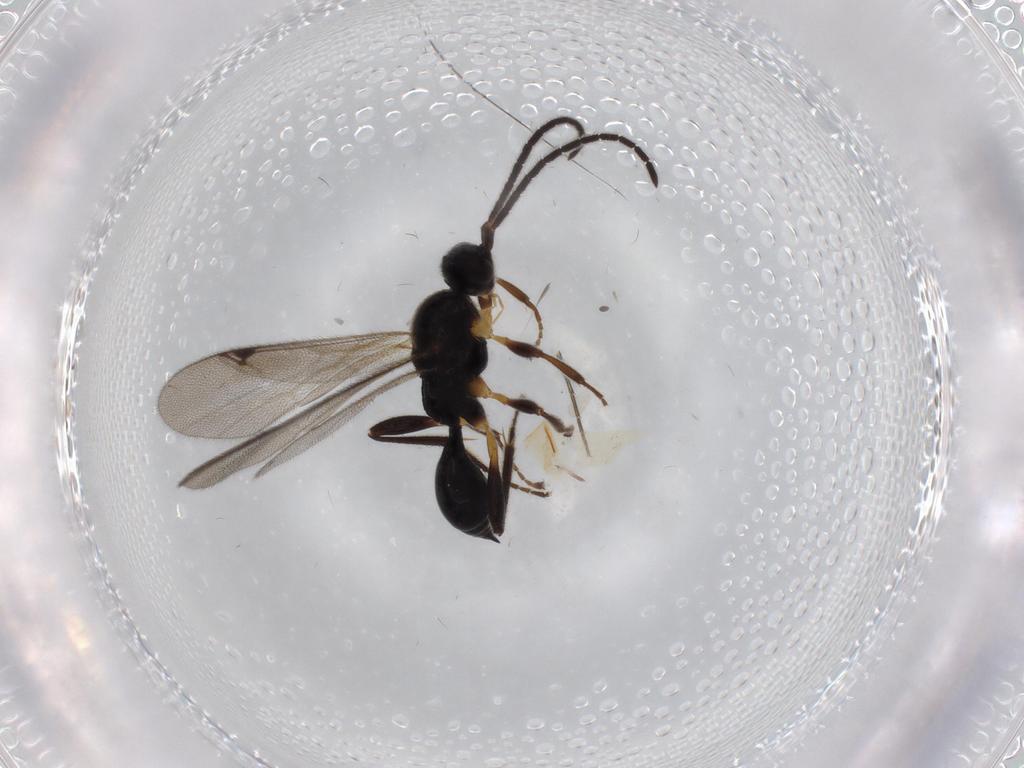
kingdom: Animalia
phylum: Arthropoda
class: Insecta
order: Hymenoptera
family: Proctotrupidae
